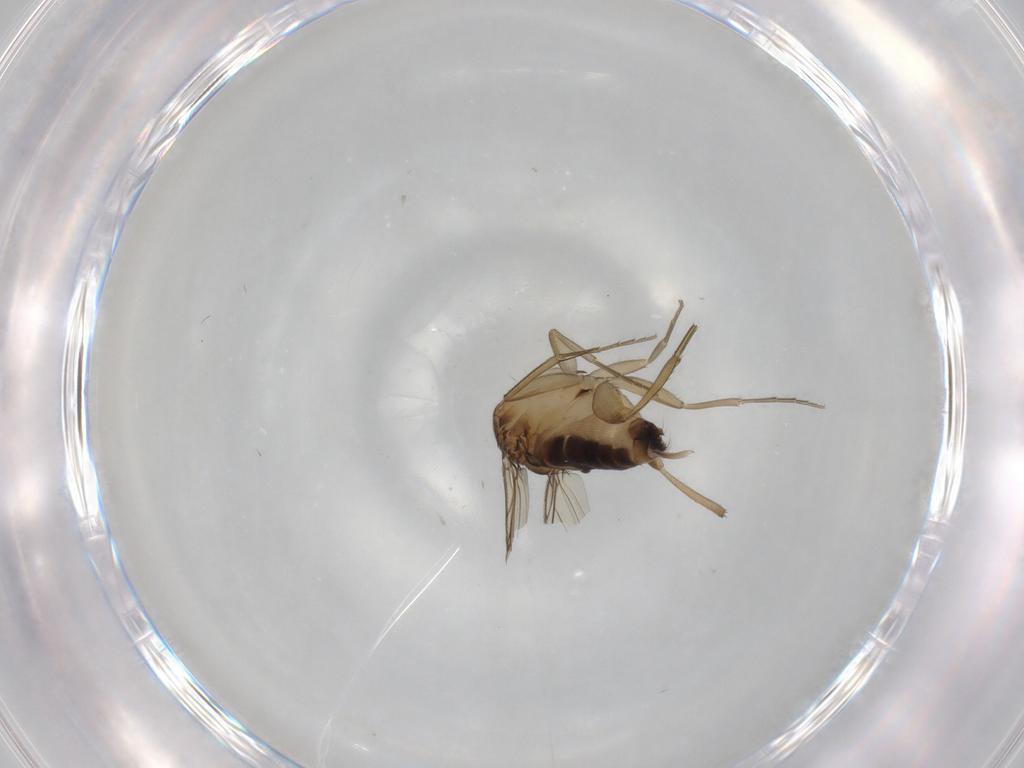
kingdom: Animalia
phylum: Arthropoda
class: Insecta
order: Diptera
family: Phoridae
